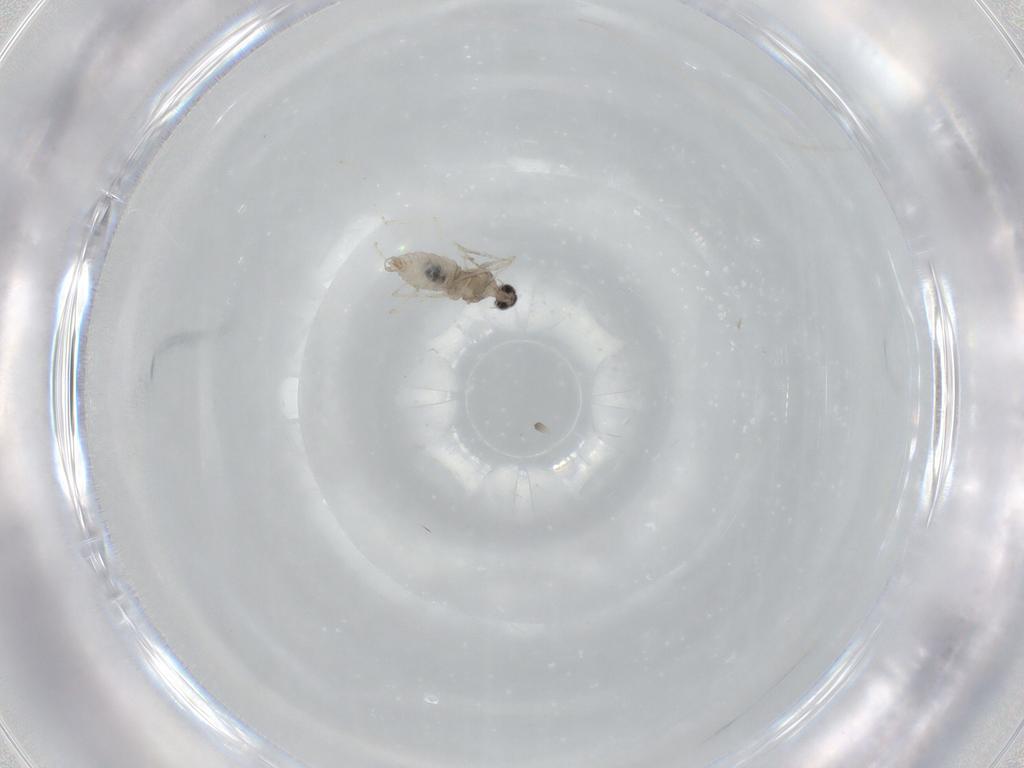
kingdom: Animalia
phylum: Arthropoda
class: Insecta
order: Diptera
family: Cecidomyiidae
